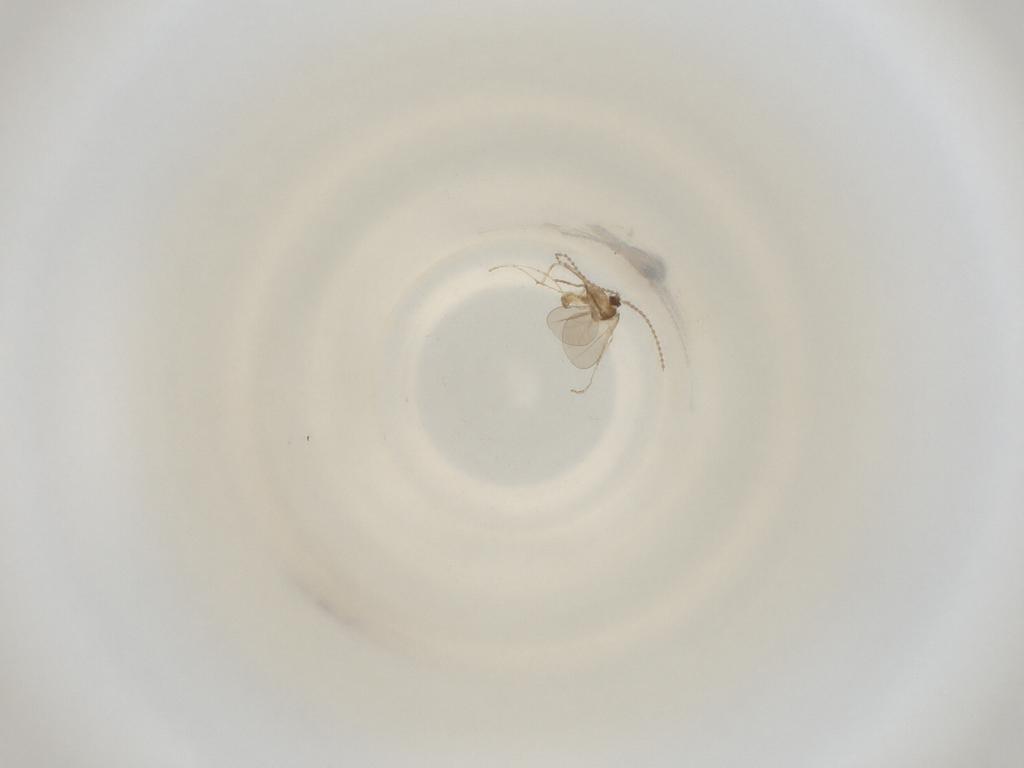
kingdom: Animalia
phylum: Arthropoda
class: Insecta
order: Diptera
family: Cecidomyiidae
